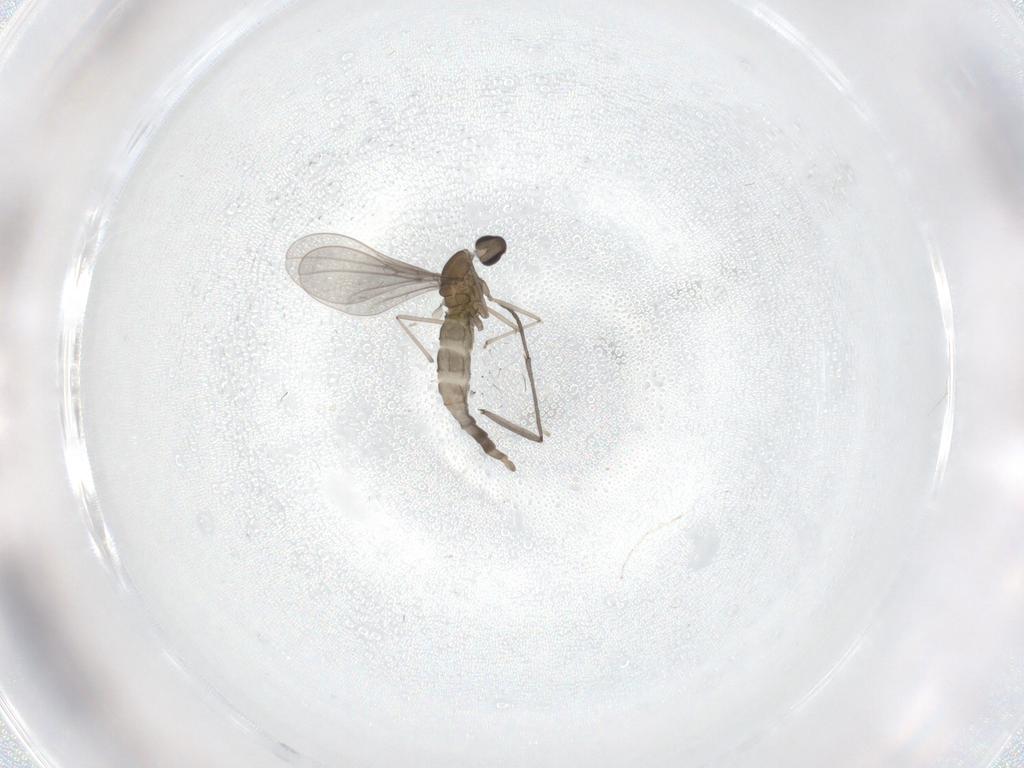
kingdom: Animalia
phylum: Arthropoda
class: Insecta
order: Diptera
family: Cecidomyiidae
